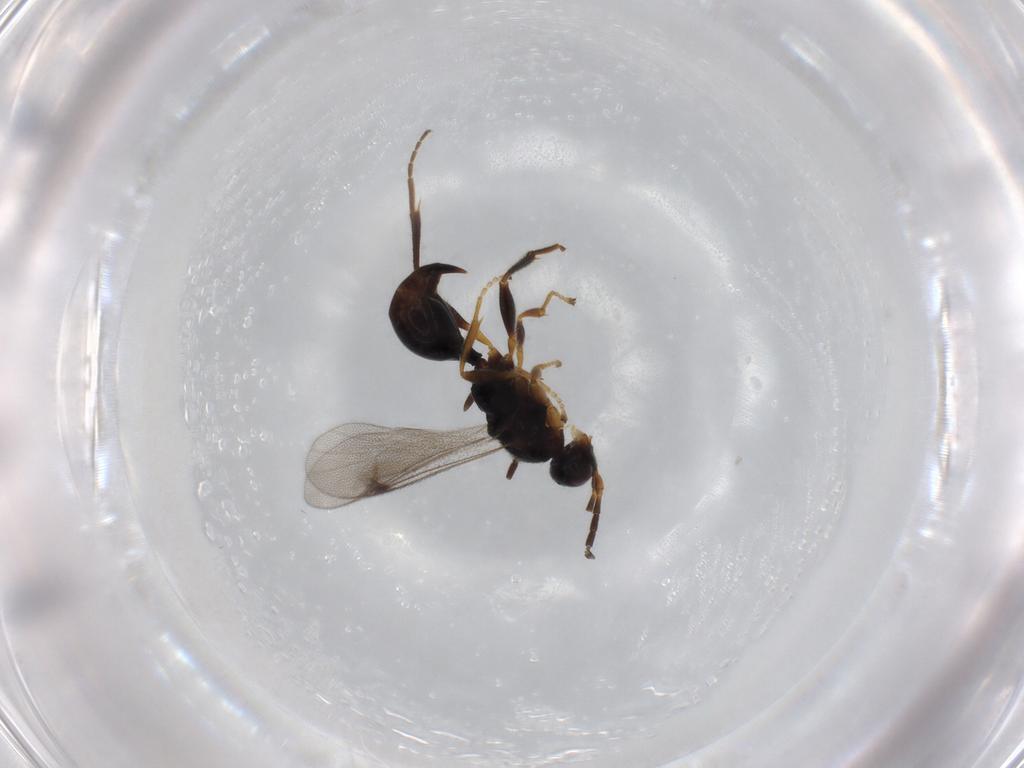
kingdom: Animalia
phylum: Arthropoda
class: Insecta
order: Hymenoptera
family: Proctotrupidae
